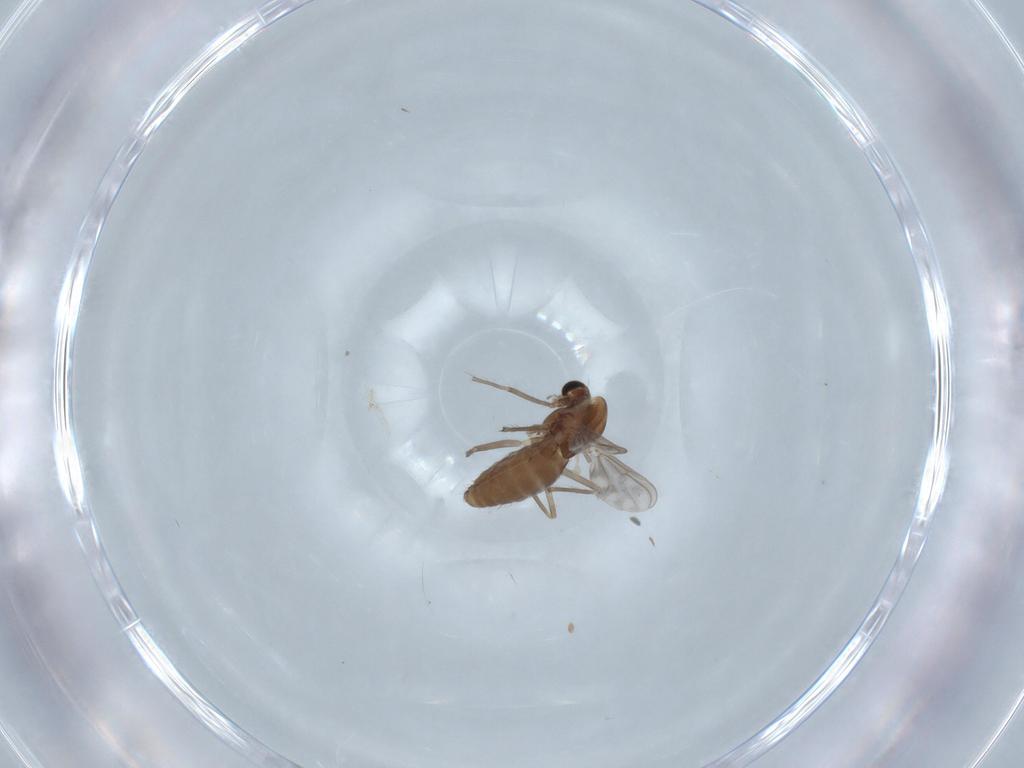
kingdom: Animalia
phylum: Arthropoda
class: Insecta
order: Diptera
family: Chironomidae
